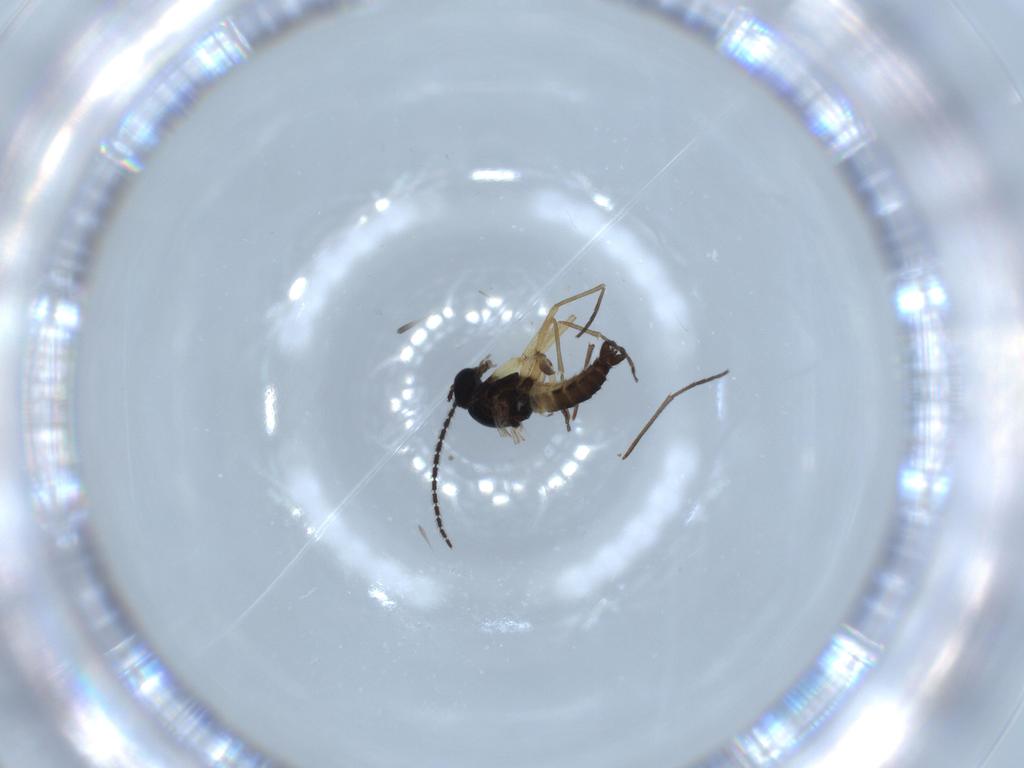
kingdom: Animalia
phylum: Arthropoda
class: Insecta
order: Diptera
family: Sciaridae
